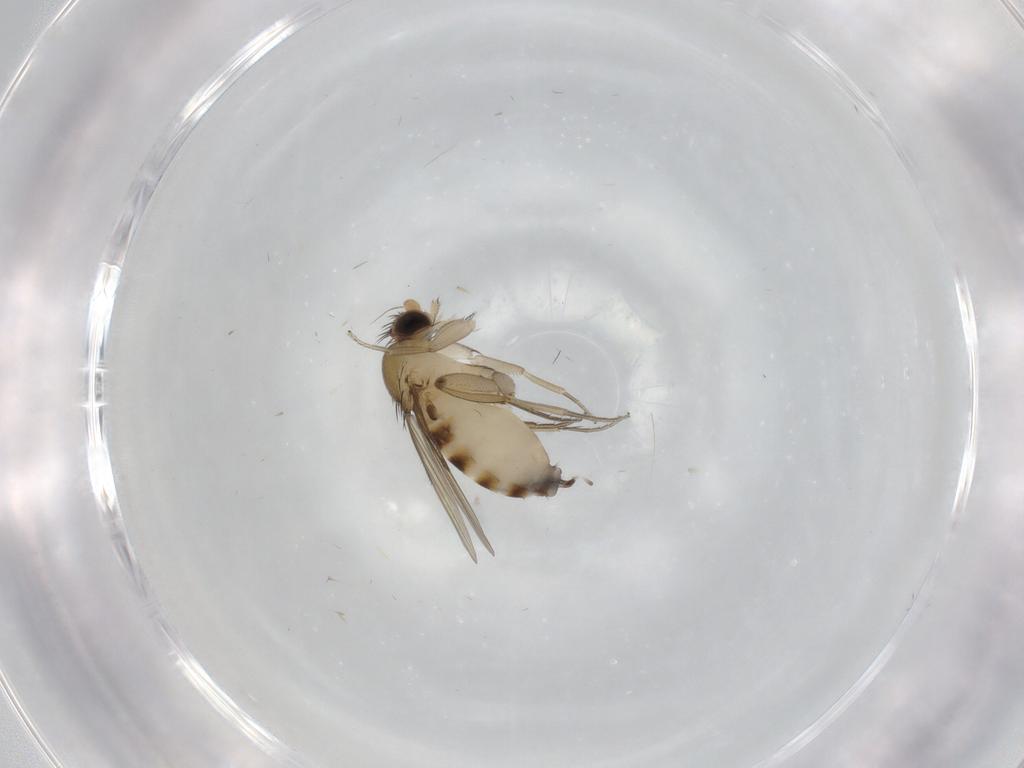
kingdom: Animalia
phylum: Arthropoda
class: Insecta
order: Diptera
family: Phoridae
